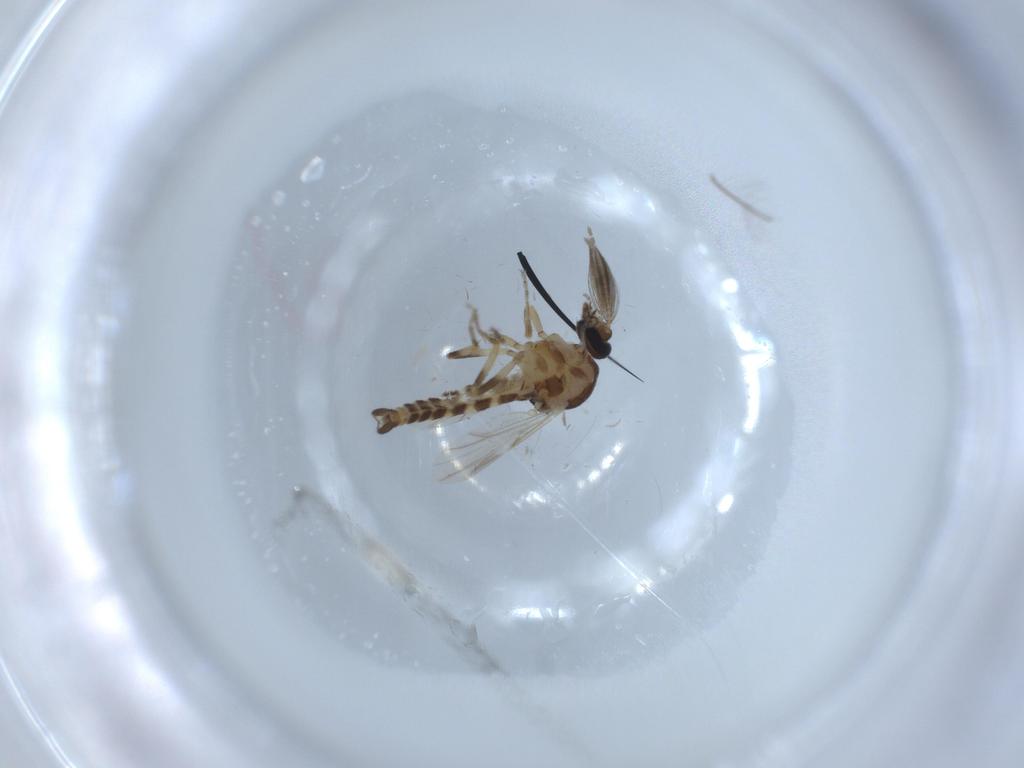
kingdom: Animalia
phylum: Arthropoda
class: Insecta
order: Diptera
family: Ceratopogonidae
